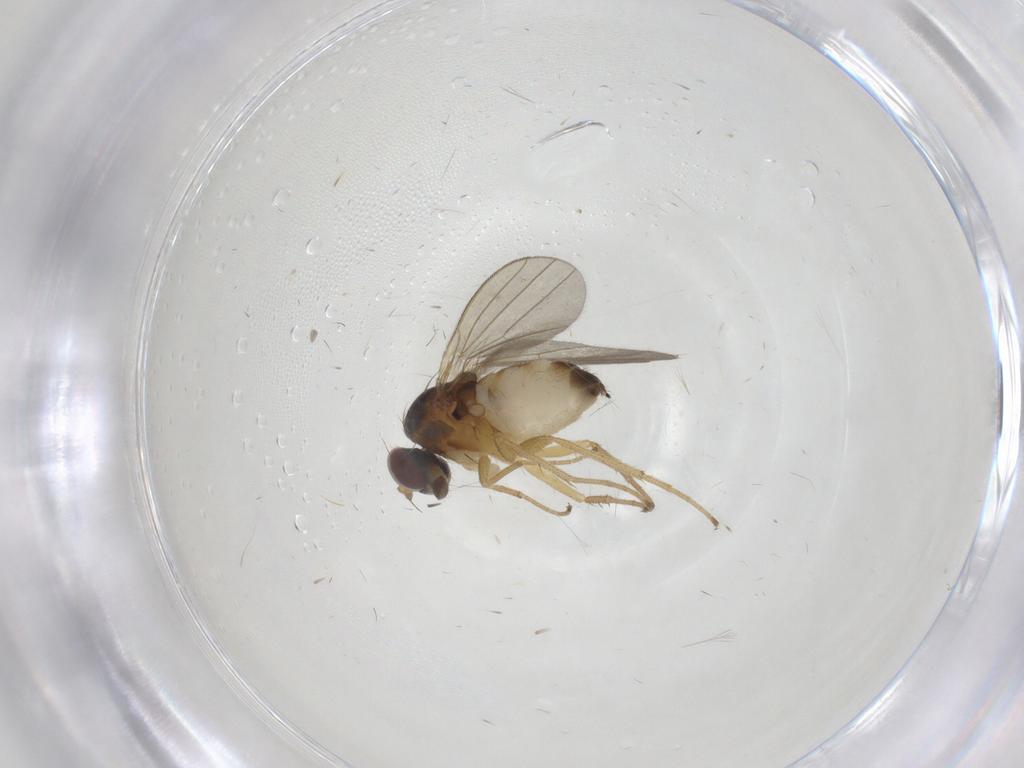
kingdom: Animalia
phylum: Arthropoda
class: Insecta
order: Diptera
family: Dolichopodidae
